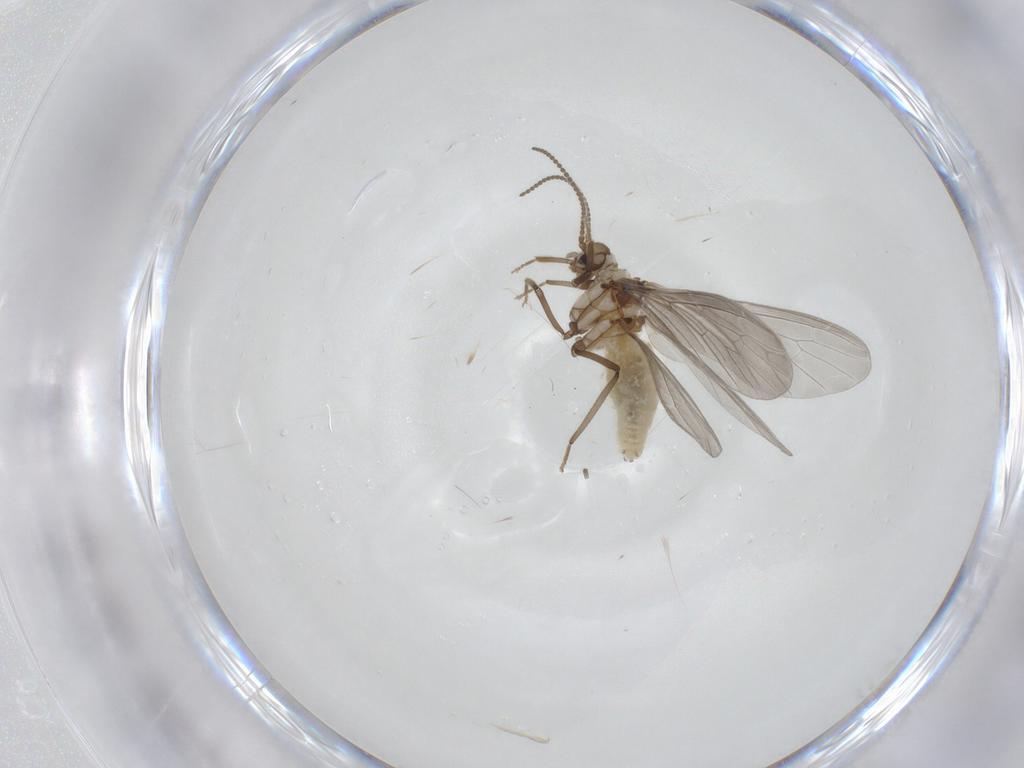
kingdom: Animalia
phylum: Arthropoda
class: Insecta
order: Neuroptera
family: Coniopterygidae
